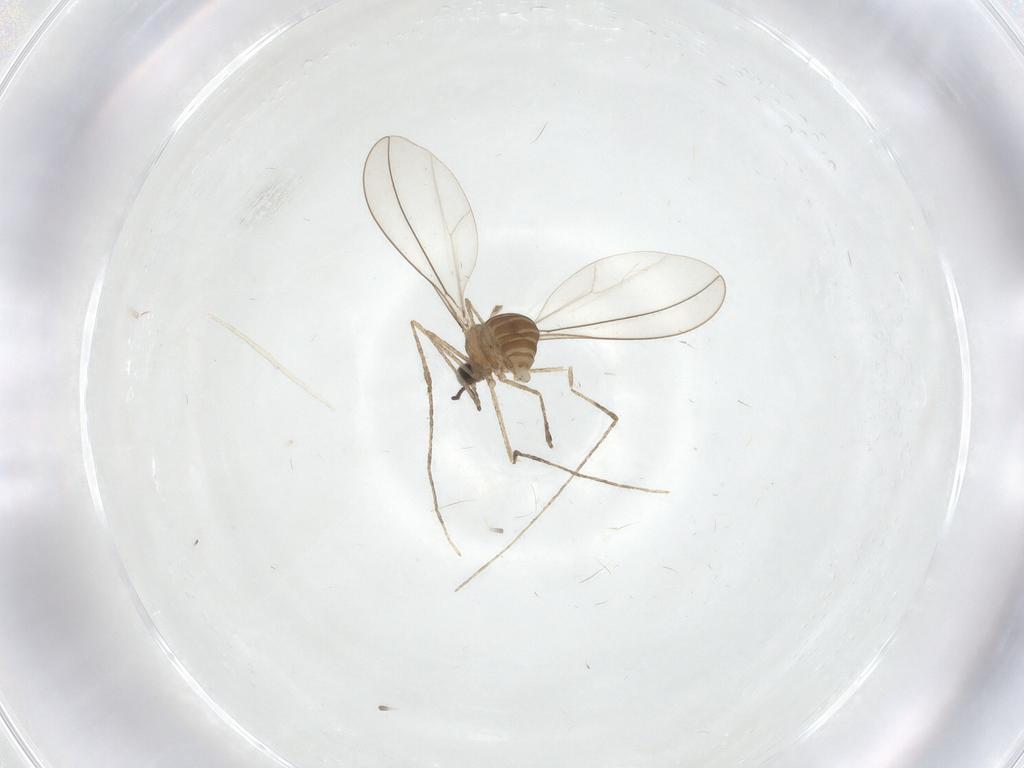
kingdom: Animalia
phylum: Arthropoda
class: Insecta
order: Diptera
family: Cecidomyiidae
